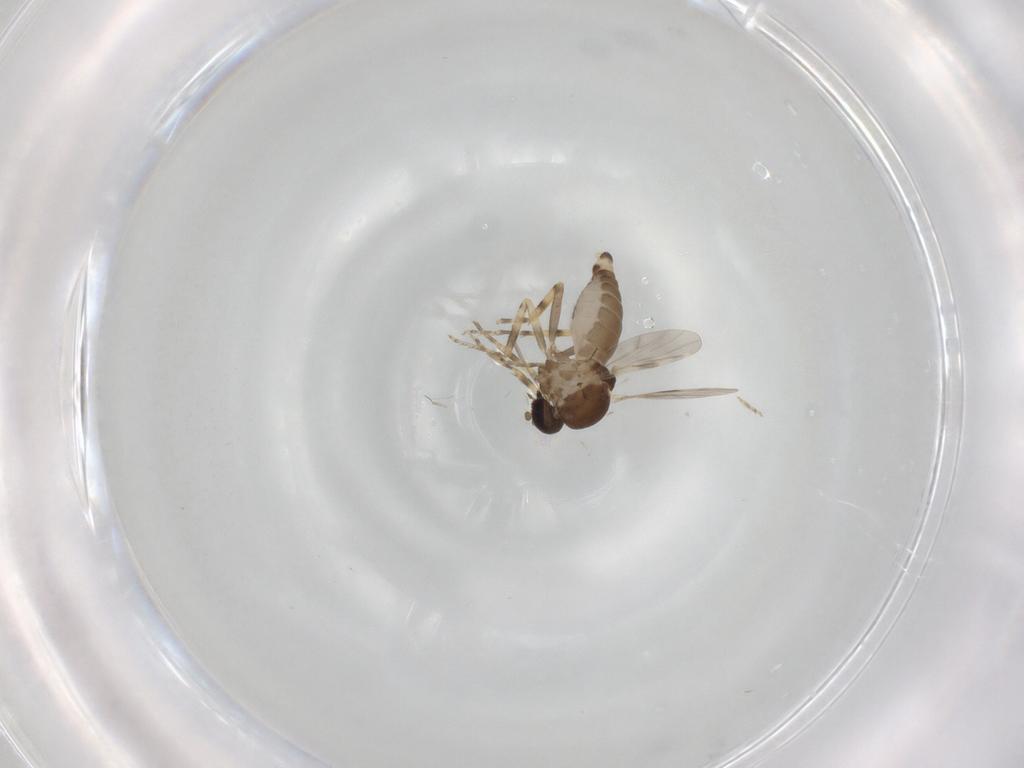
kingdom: Animalia
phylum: Arthropoda
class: Insecta
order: Diptera
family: Ceratopogonidae
